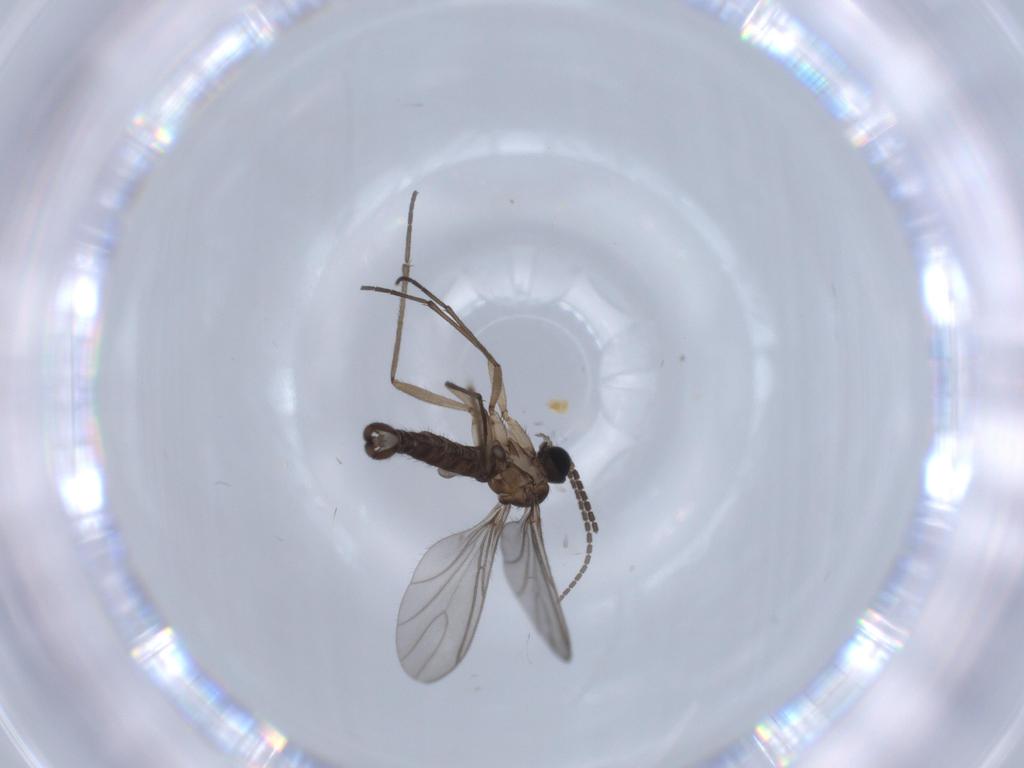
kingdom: Animalia
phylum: Arthropoda
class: Insecta
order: Diptera
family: Sciaridae
